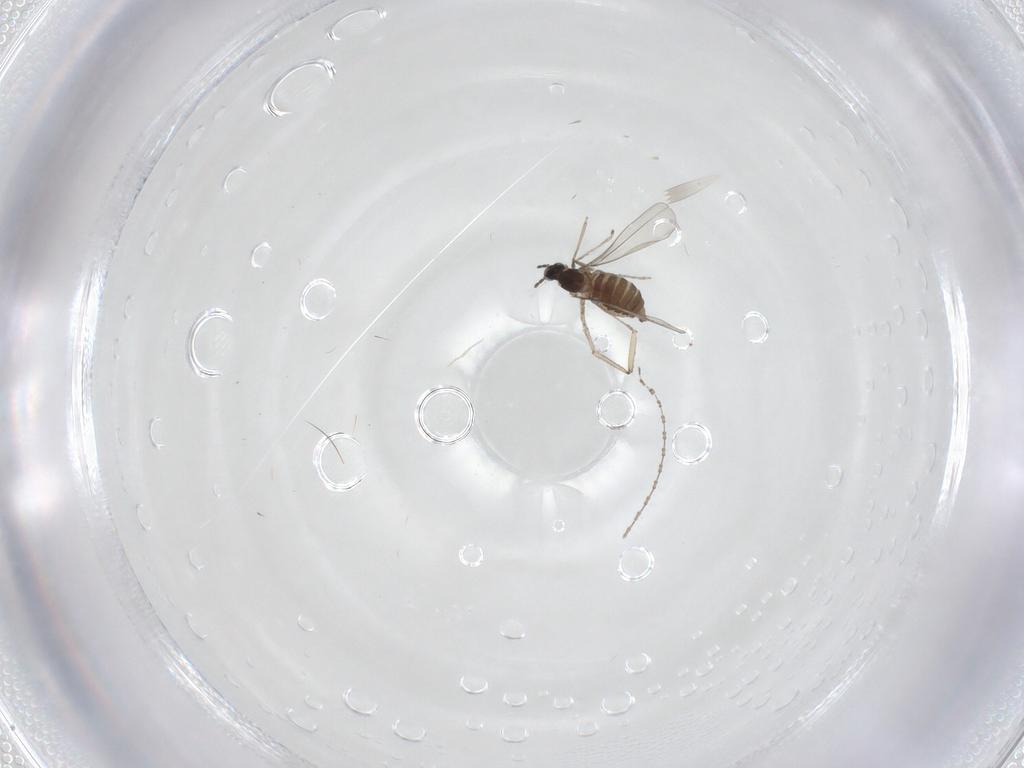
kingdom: Animalia
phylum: Arthropoda
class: Insecta
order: Diptera
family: Cecidomyiidae
